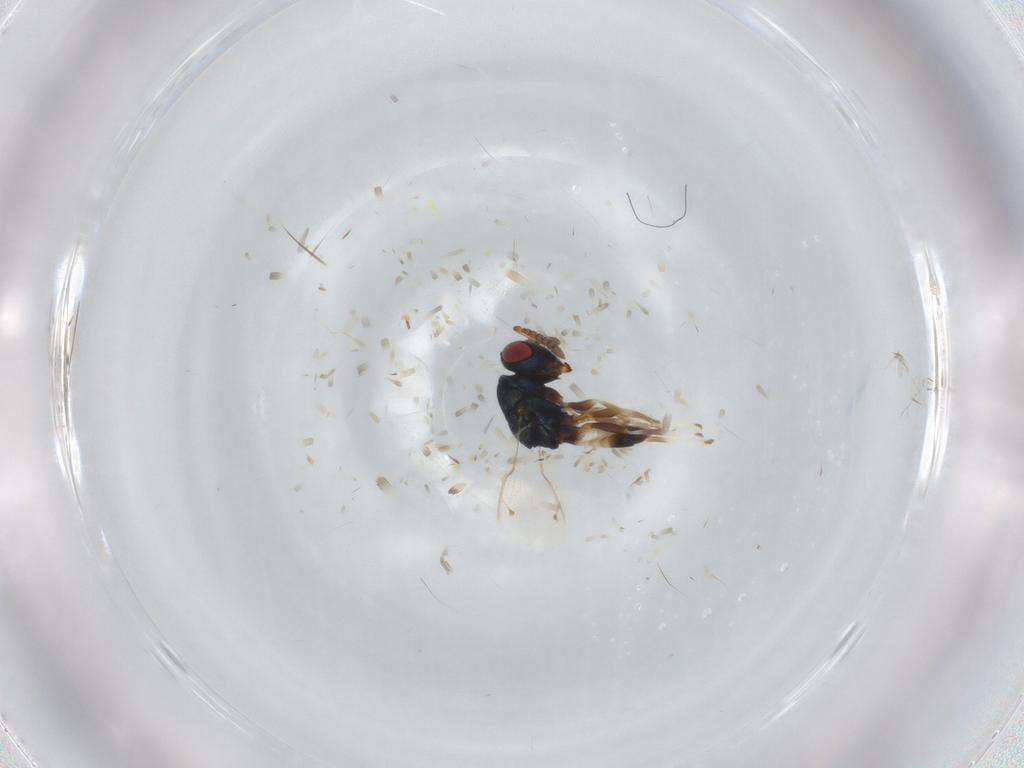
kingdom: Animalia
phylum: Arthropoda
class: Insecta
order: Hymenoptera
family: Pteromalidae
